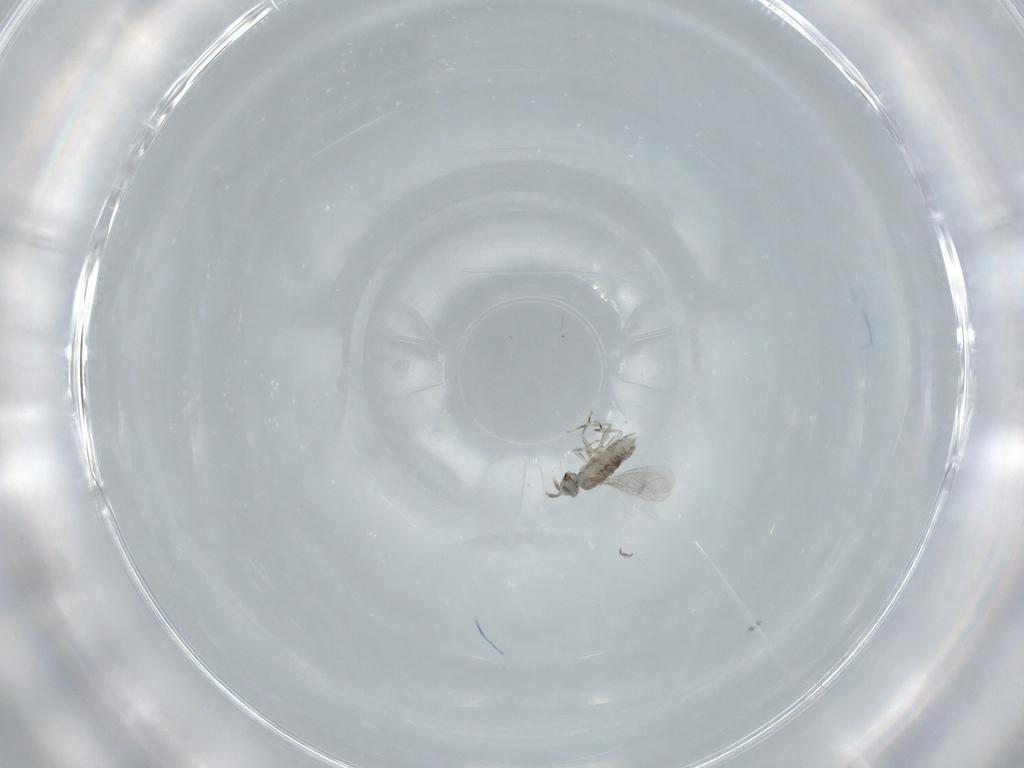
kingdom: Animalia
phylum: Arthropoda
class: Insecta
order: Hymenoptera
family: Aphelinidae
